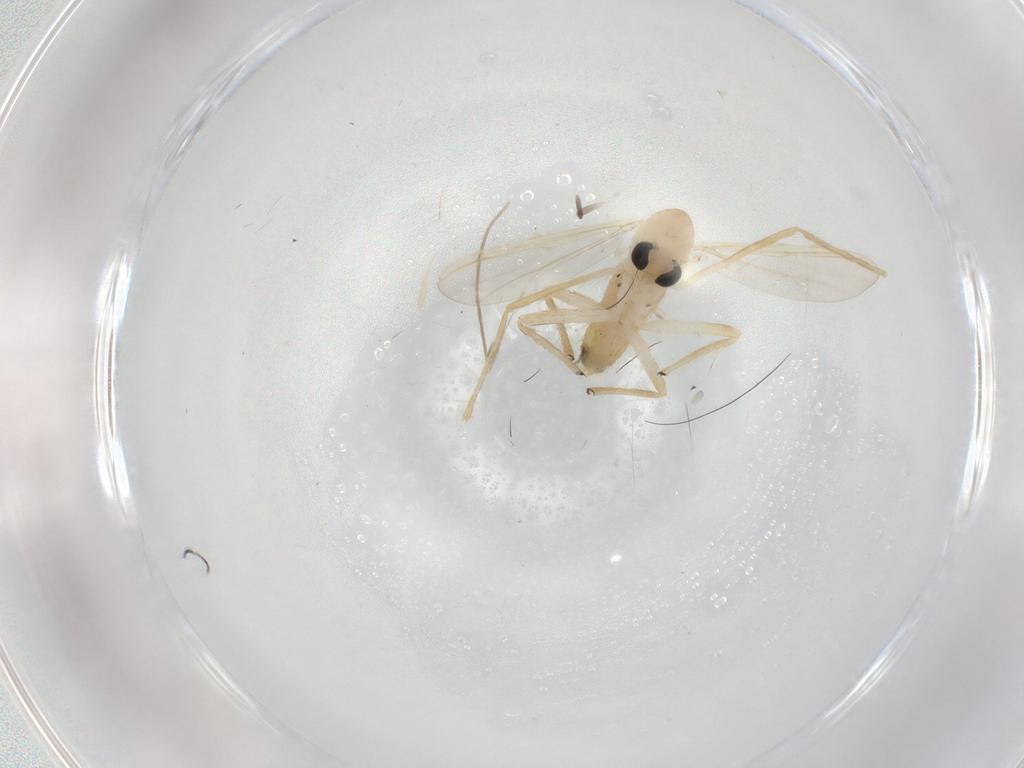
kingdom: Animalia
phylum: Arthropoda
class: Insecta
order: Diptera
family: Chironomidae
